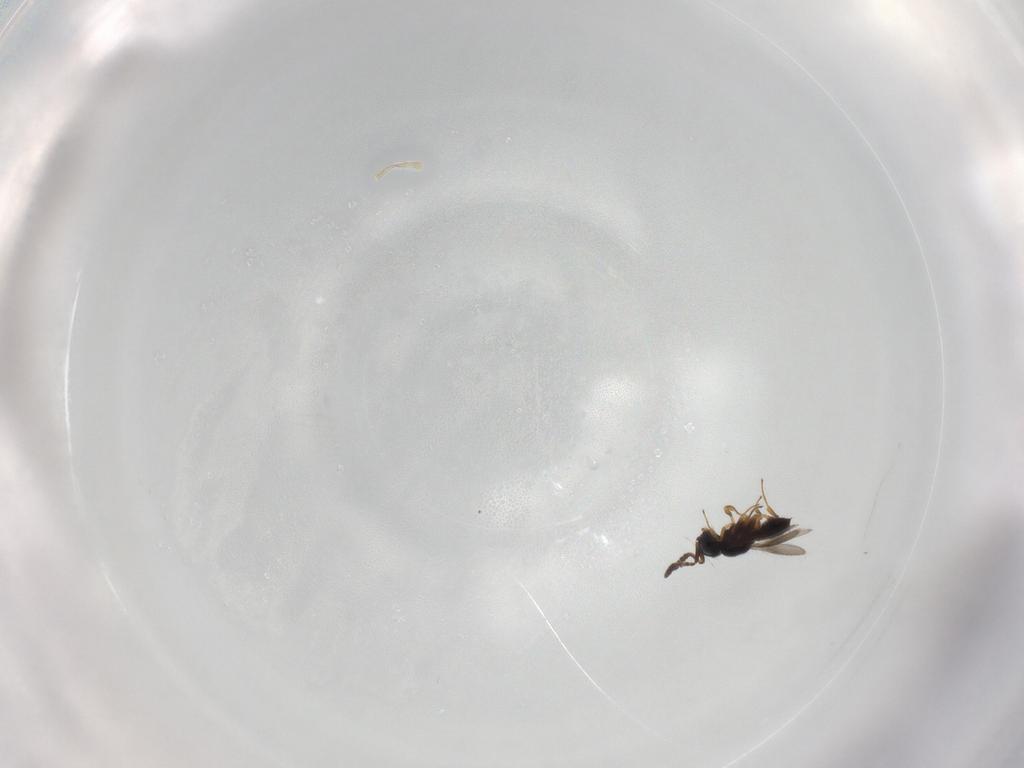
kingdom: Animalia
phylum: Arthropoda
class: Insecta
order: Hymenoptera
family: Scelionidae
